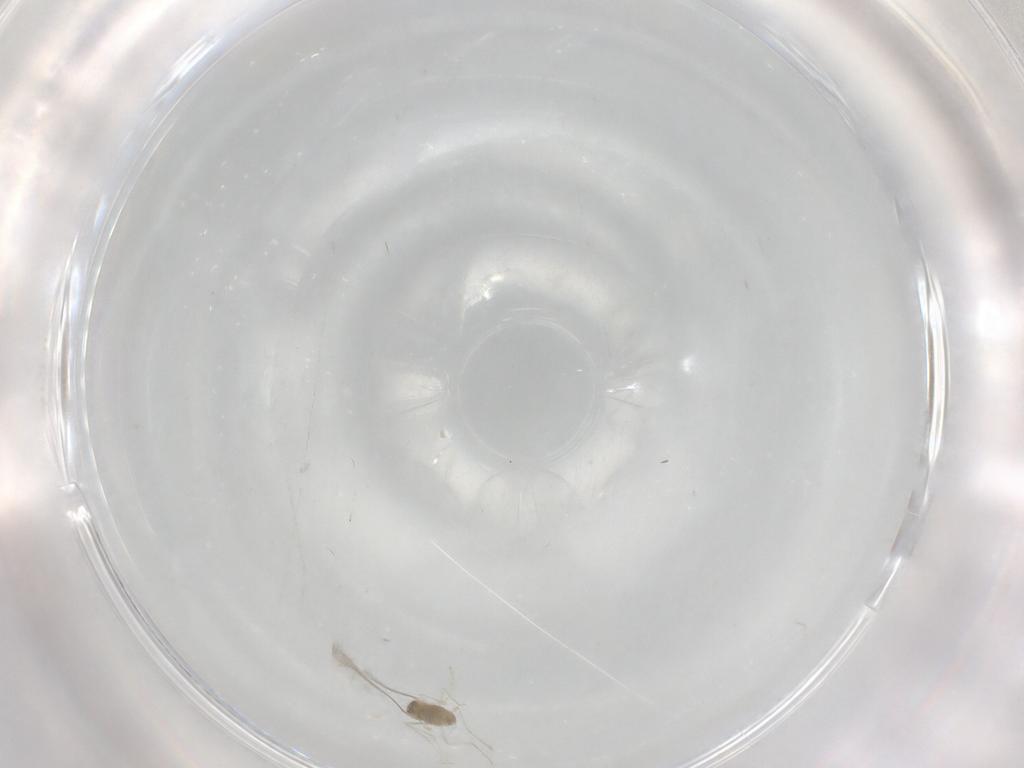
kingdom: Animalia
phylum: Arthropoda
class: Insecta
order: Diptera
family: Cecidomyiidae
